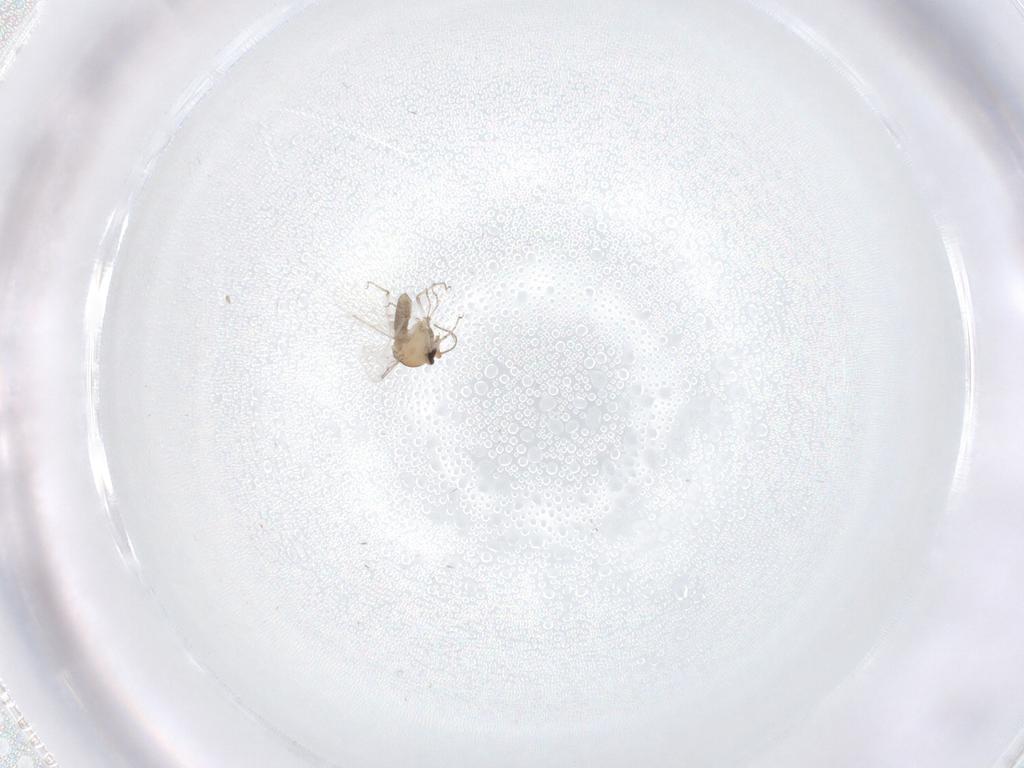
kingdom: Animalia
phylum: Arthropoda
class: Insecta
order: Diptera
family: Ceratopogonidae
